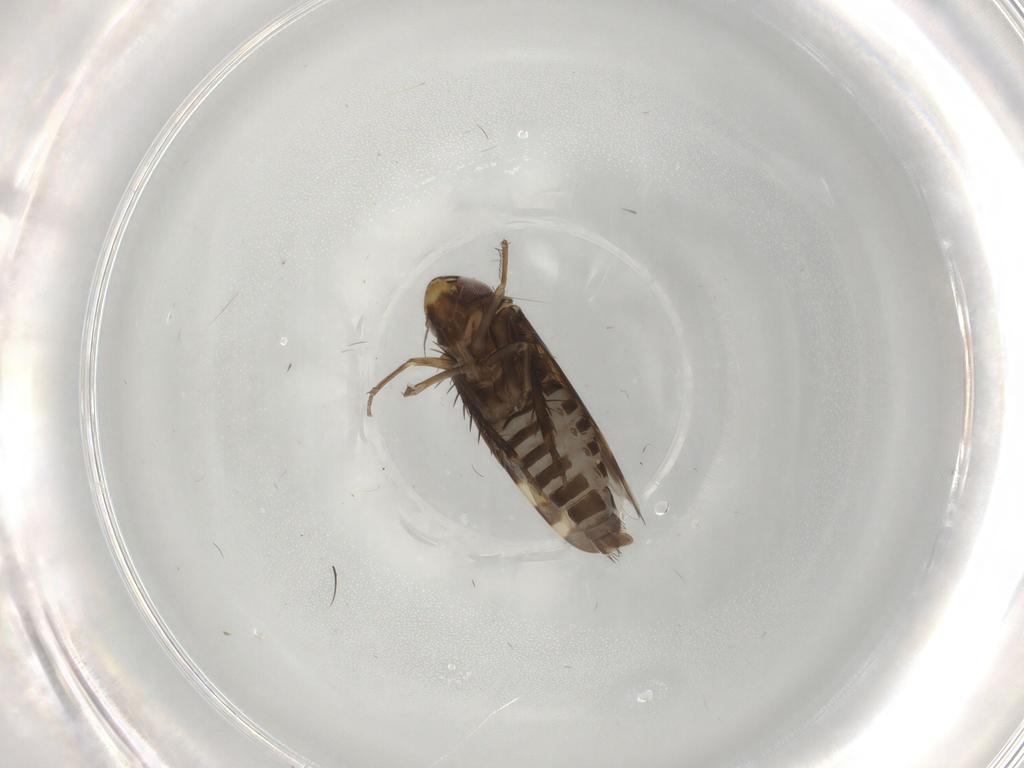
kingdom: Animalia
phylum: Arthropoda
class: Insecta
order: Hemiptera
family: Cicadellidae
